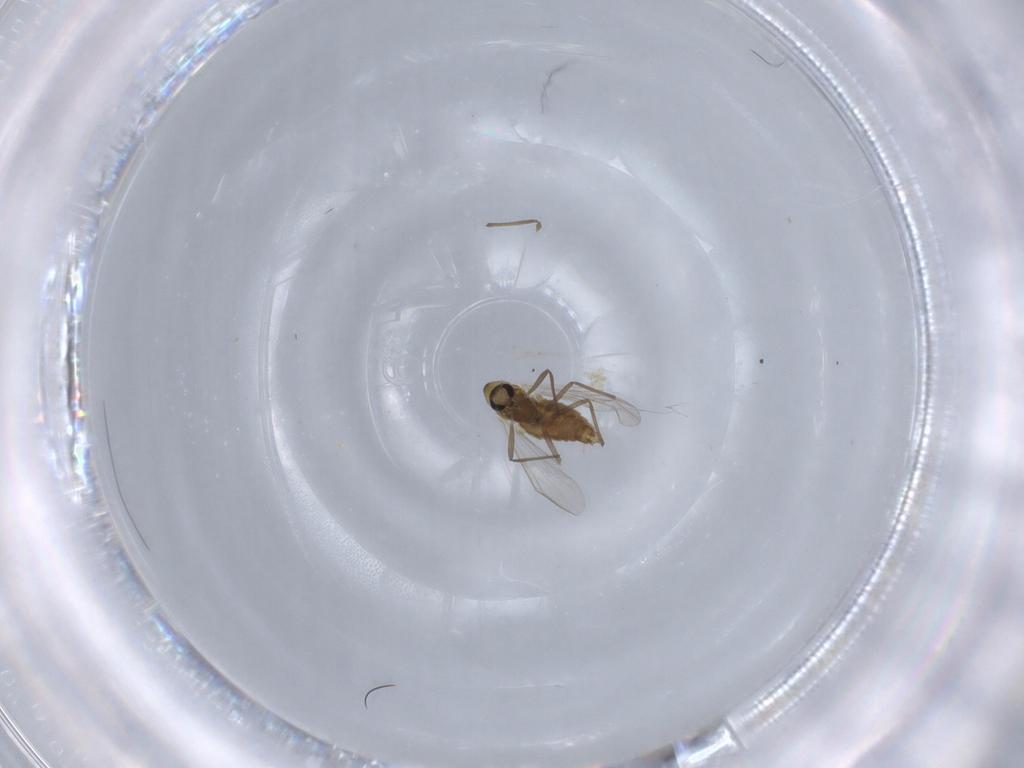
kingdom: Animalia
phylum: Arthropoda
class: Insecta
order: Diptera
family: Chironomidae
